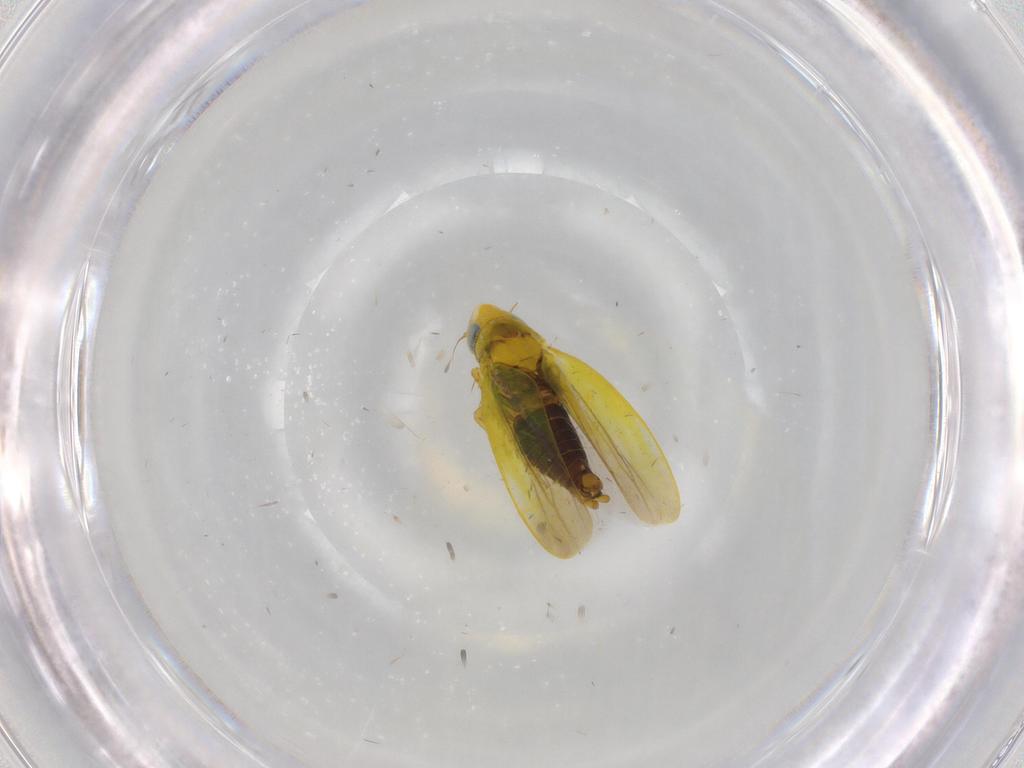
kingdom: Animalia
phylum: Arthropoda
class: Insecta
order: Hemiptera
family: Cicadellidae
